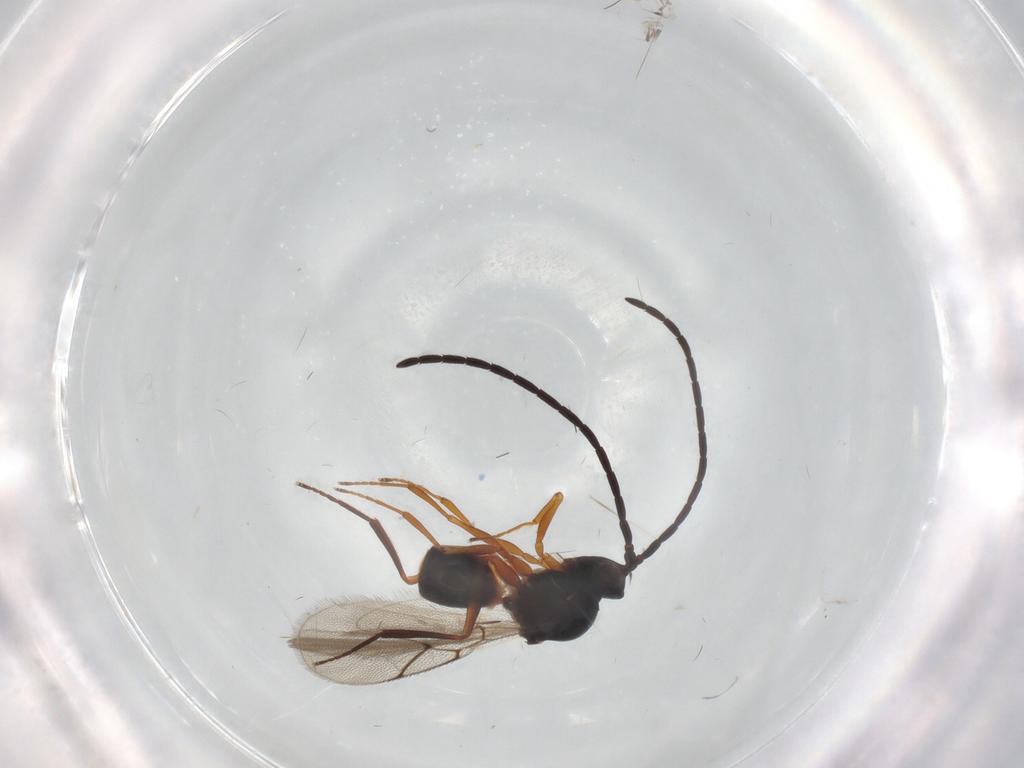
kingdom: Animalia
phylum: Arthropoda
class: Insecta
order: Hymenoptera
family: Figitidae
